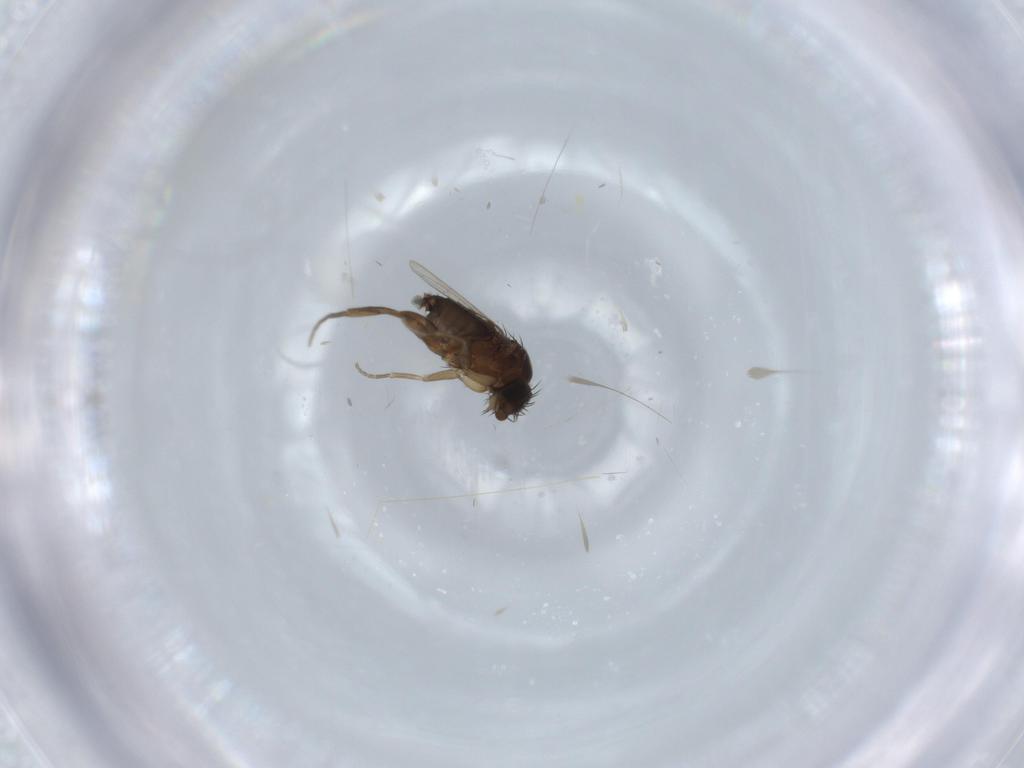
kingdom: Animalia
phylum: Arthropoda
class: Insecta
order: Diptera
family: Phoridae
